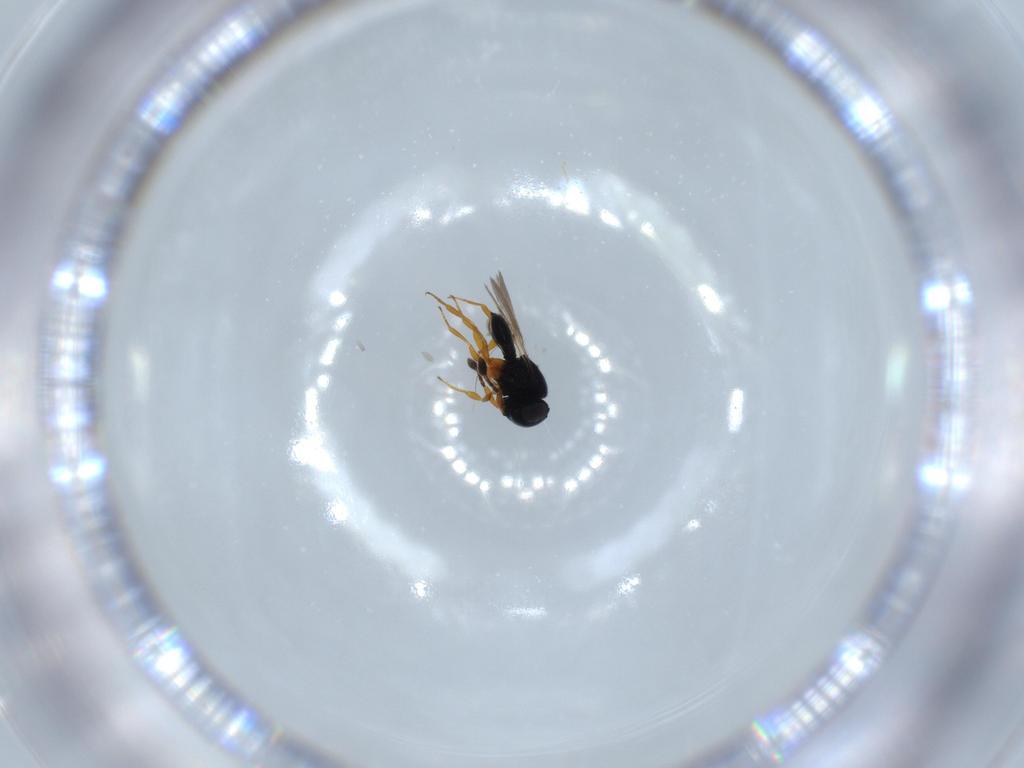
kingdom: Animalia
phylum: Arthropoda
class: Insecta
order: Hymenoptera
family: Scelionidae
